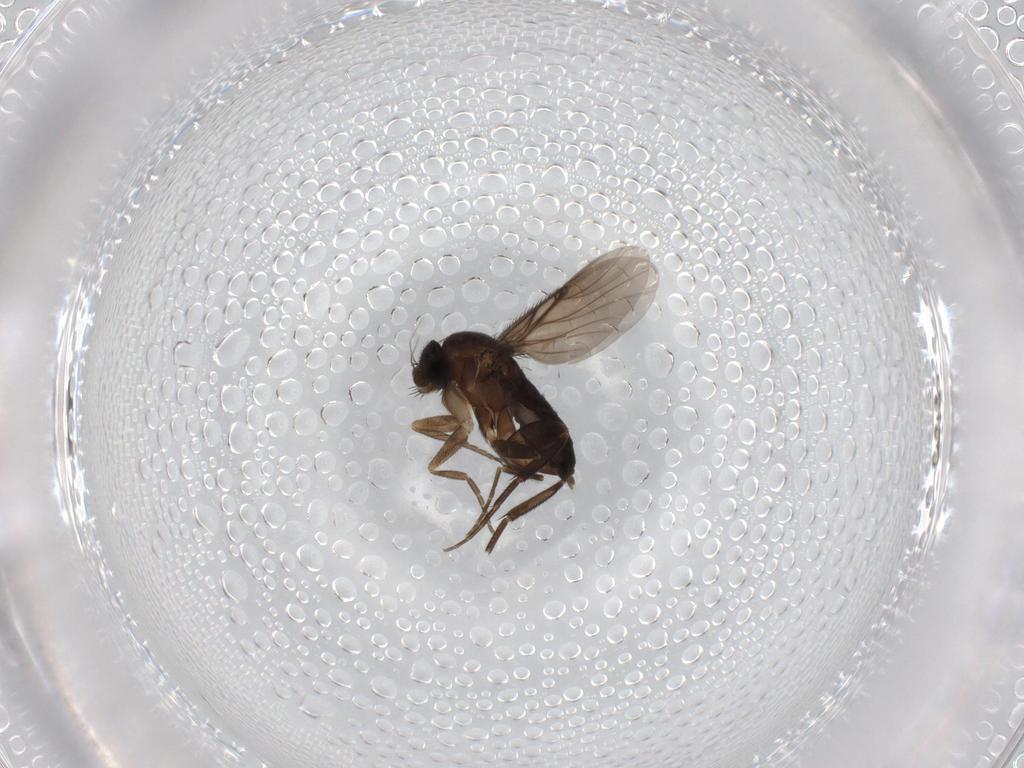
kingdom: Animalia
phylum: Arthropoda
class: Insecta
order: Diptera
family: Phoridae
